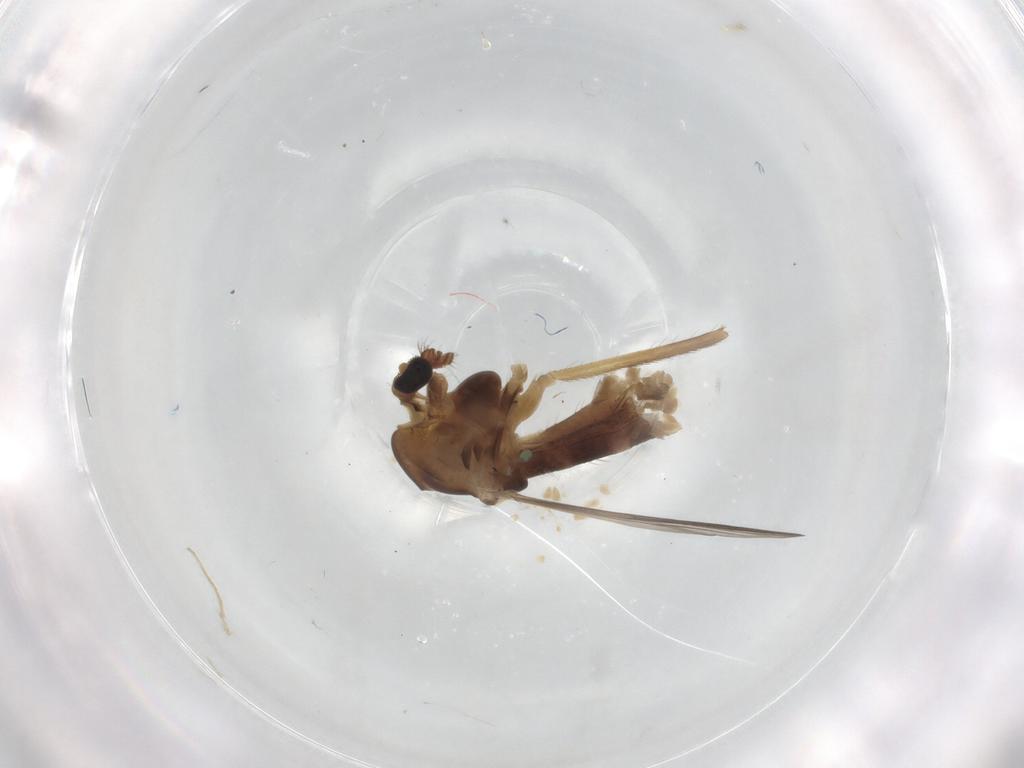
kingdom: Animalia
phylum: Arthropoda
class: Insecta
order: Diptera
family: Chironomidae
